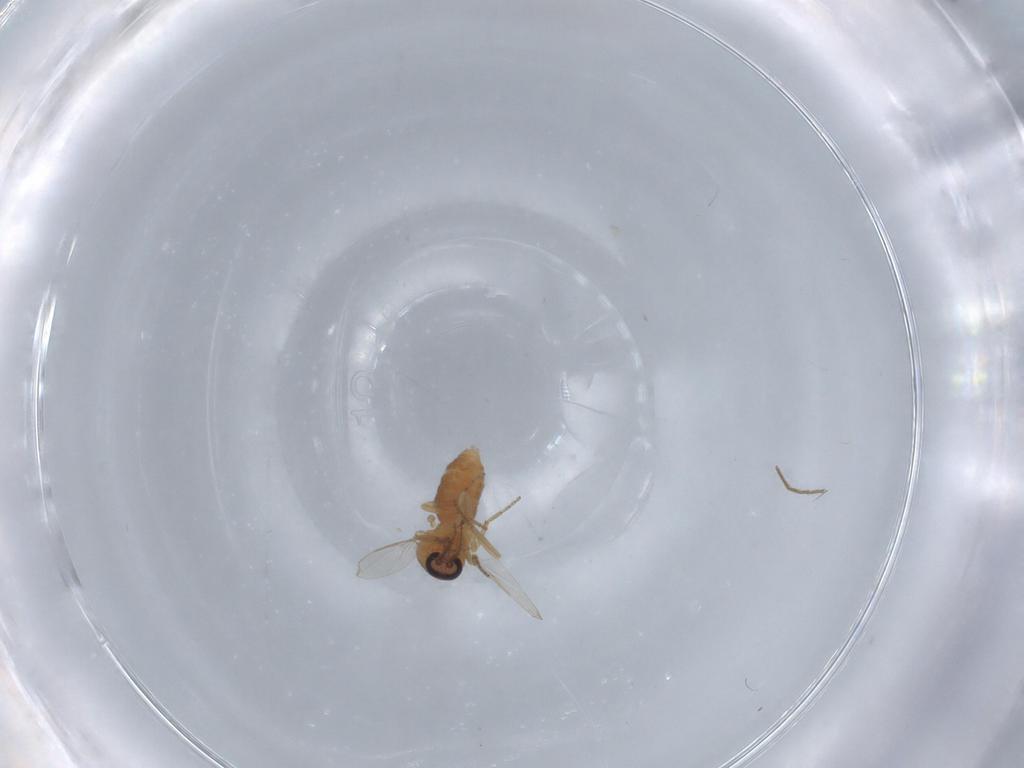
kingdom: Animalia
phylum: Arthropoda
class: Insecta
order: Diptera
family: Ceratopogonidae
